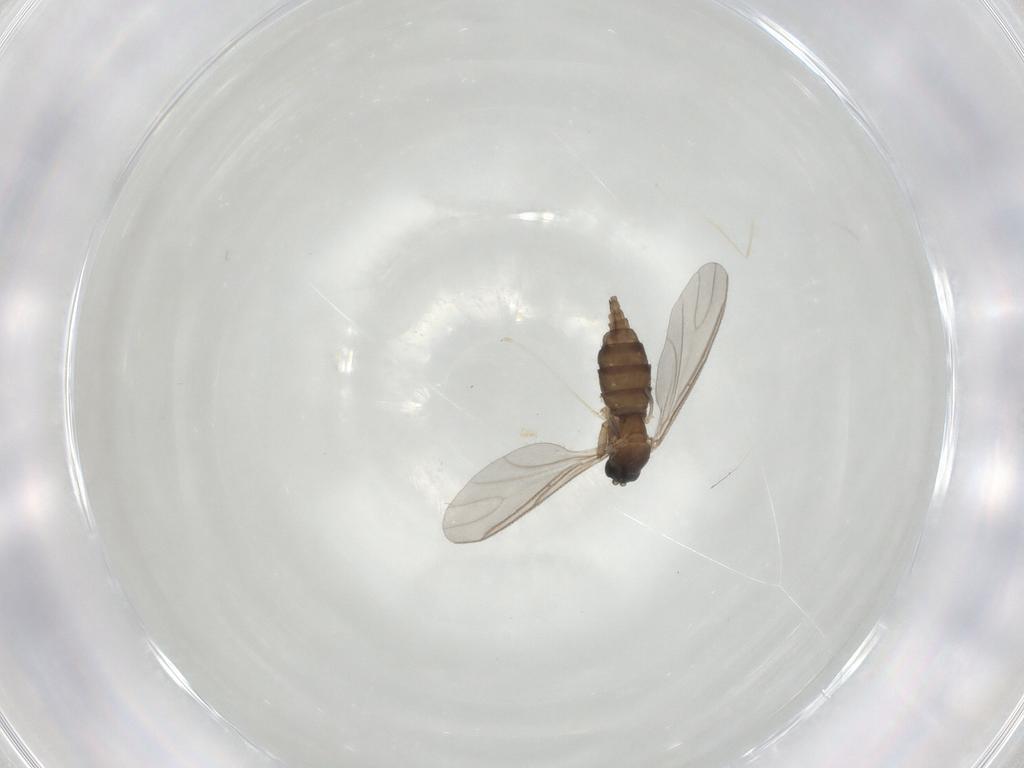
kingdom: Animalia
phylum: Arthropoda
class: Insecta
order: Diptera
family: Sciaridae
